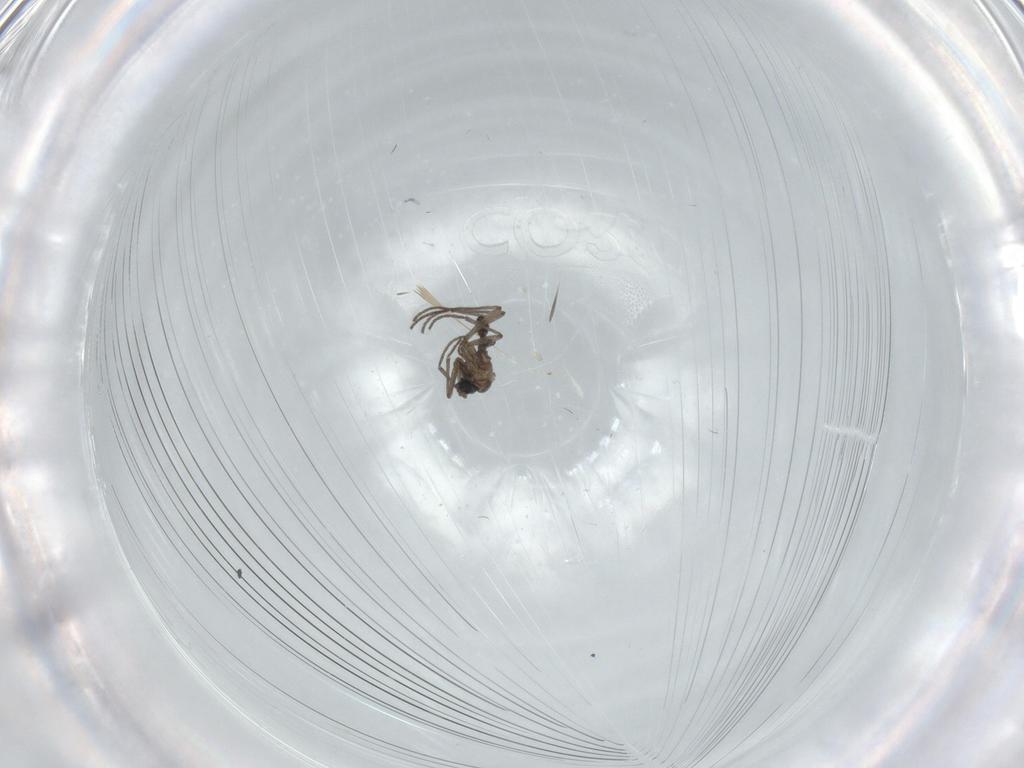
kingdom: Animalia
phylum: Arthropoda
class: Insecta
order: Diptera
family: Sciaridae
